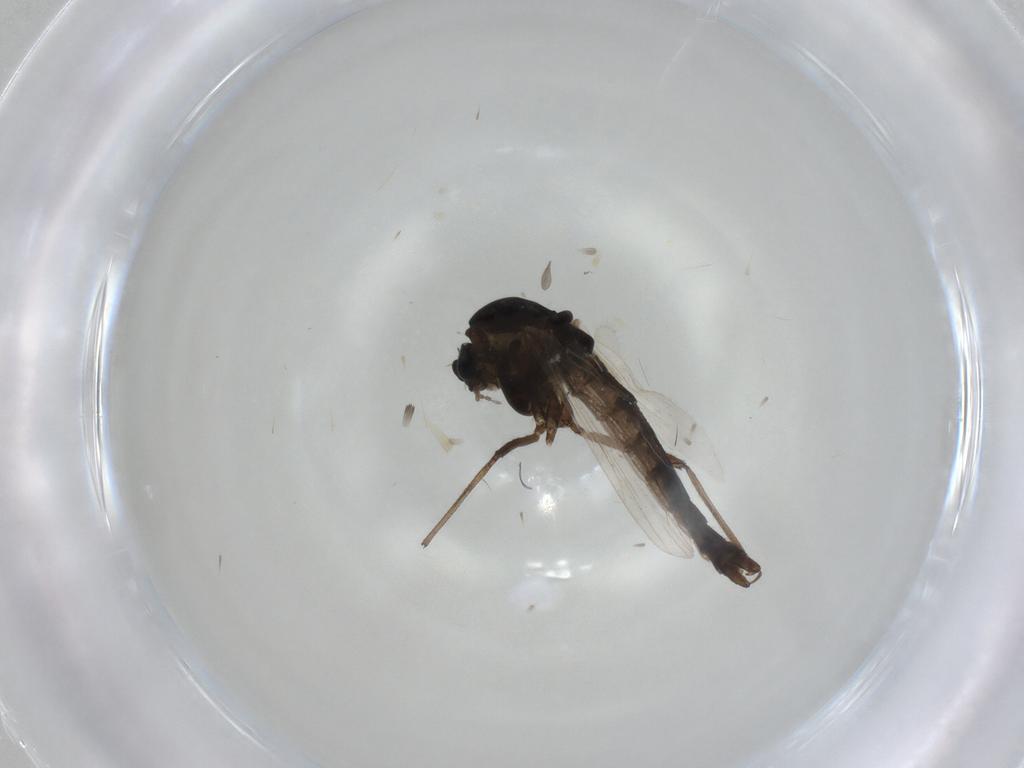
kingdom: Animalia
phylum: Arthropoda
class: Insecta
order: Diptera
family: Chironomidae
